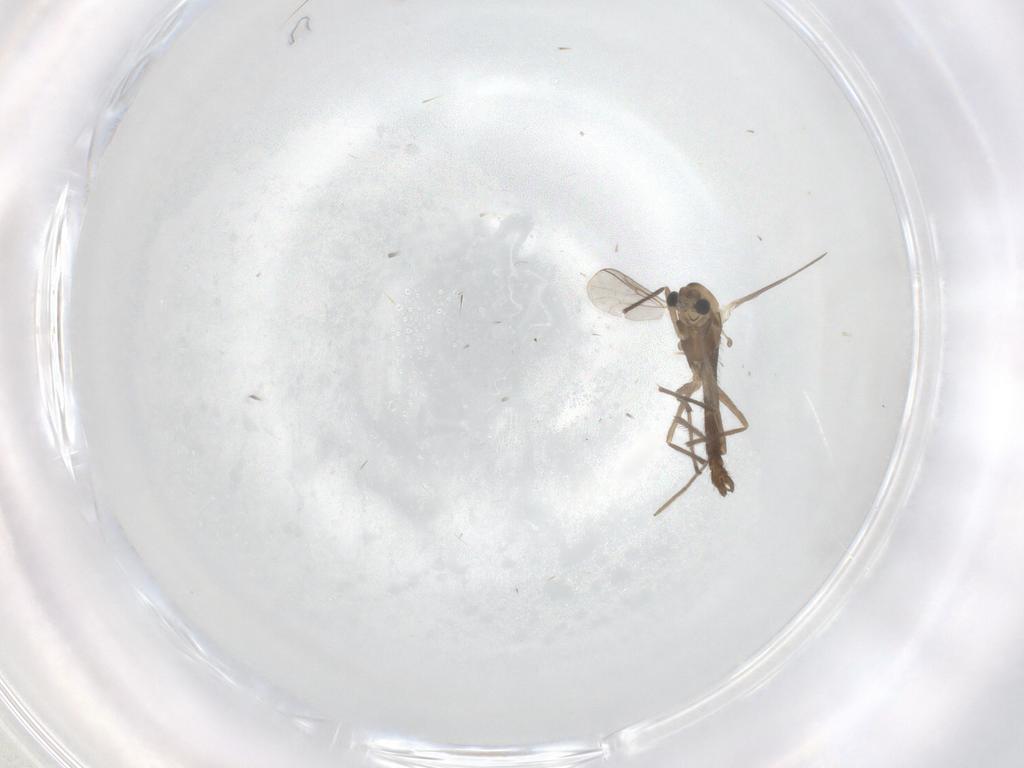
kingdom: Animalia
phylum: Arthropoda
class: Insecta
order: Diptera
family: Chironomidae
